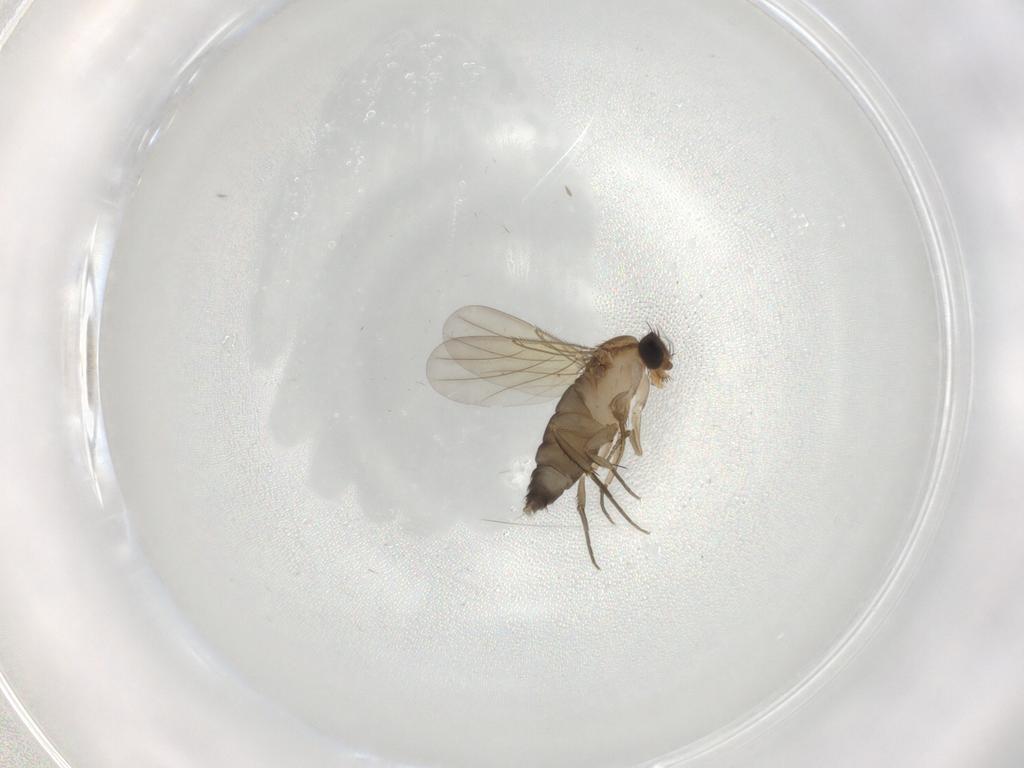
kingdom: Animalia
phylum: Arthropoda
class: Insecta
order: Diptera
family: Phoridae
